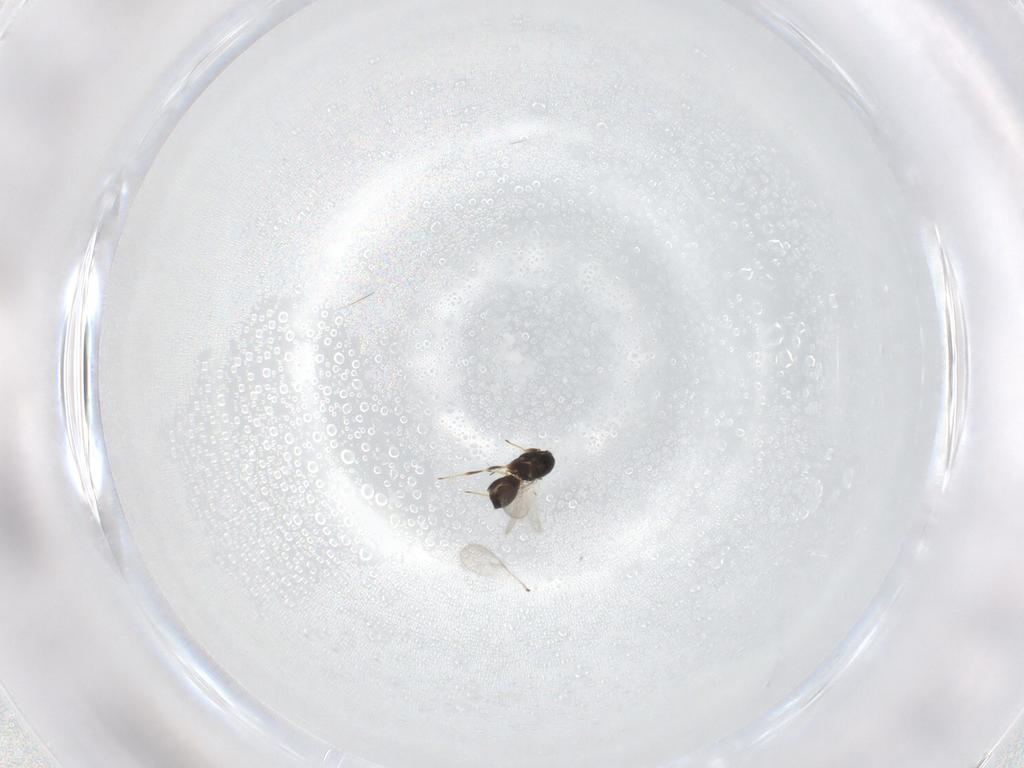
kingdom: Animalia
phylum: Arthropoda
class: Insecta
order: Hymenoptera
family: Scelionidae
